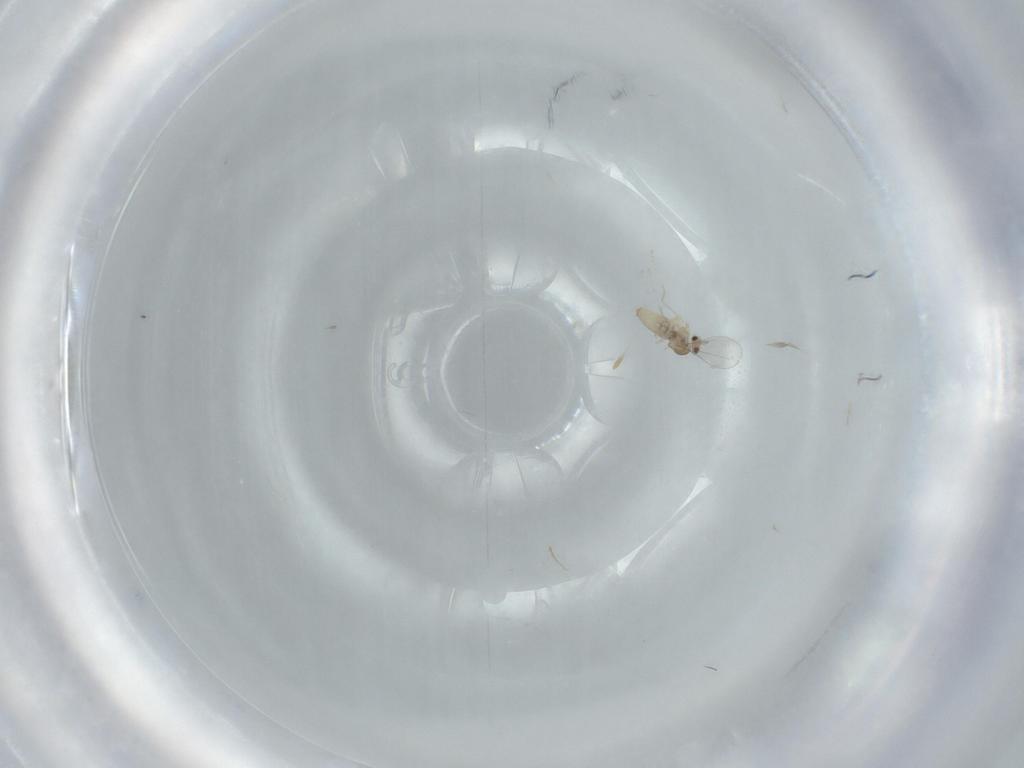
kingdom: Animalia
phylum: Arthropoda
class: Insecta
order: Diptera
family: Cecidomyiidae
